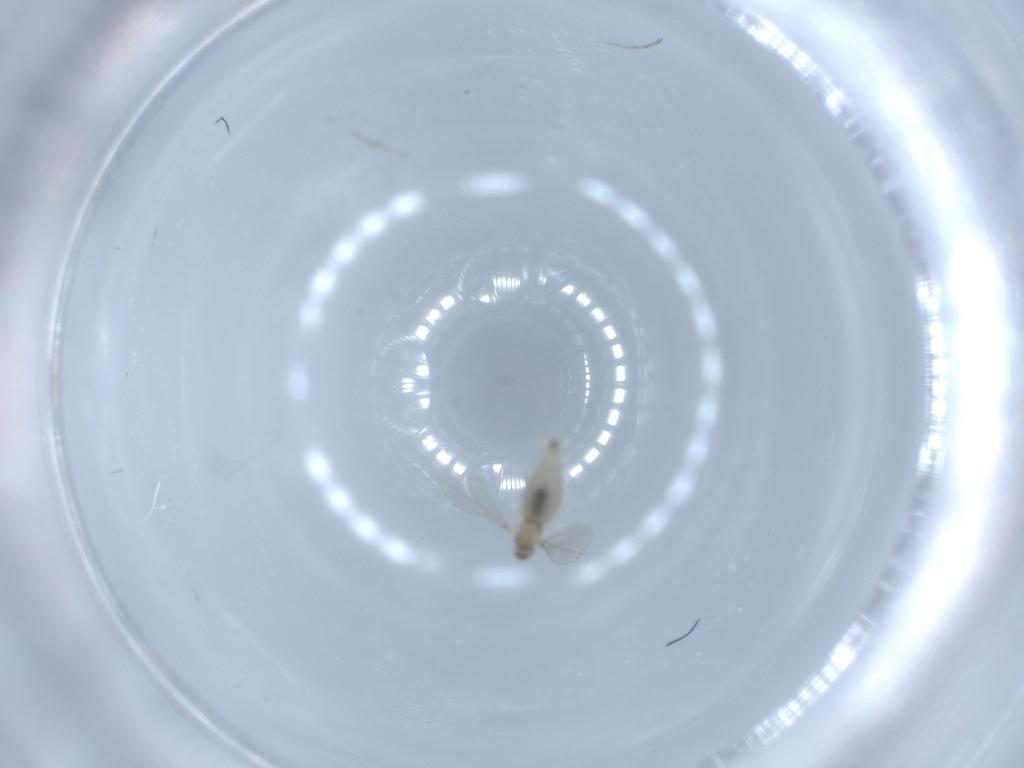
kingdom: Animalia
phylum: Arthropoda
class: Insecta
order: Diptera
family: Cecidomyiidae
